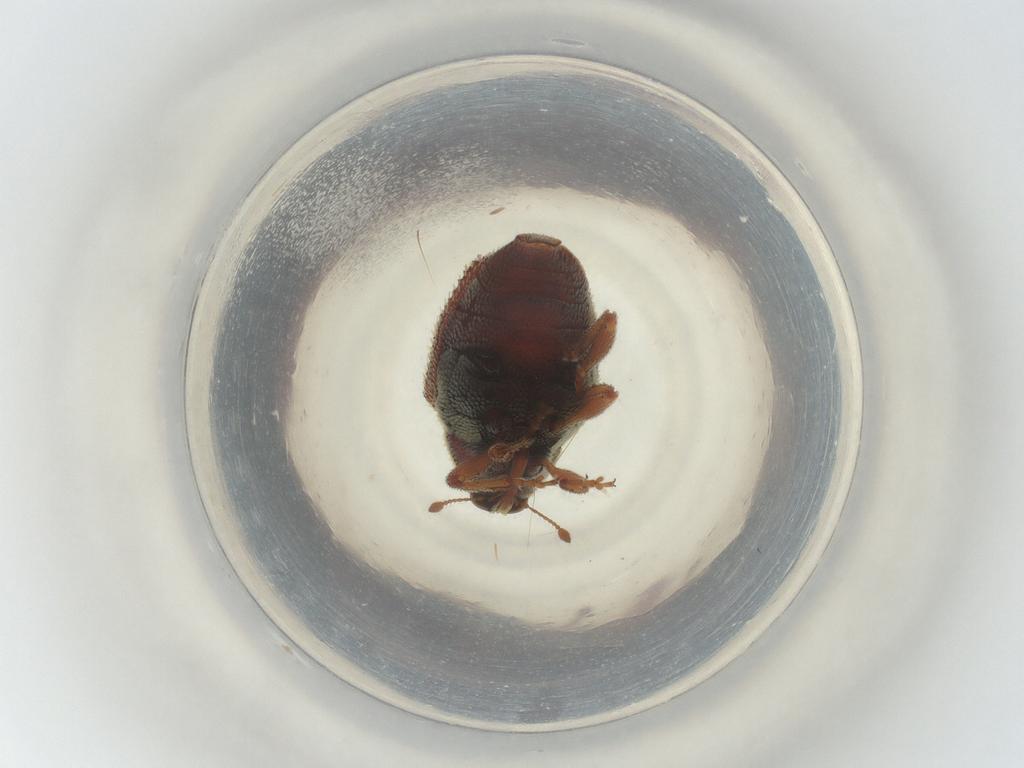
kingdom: Animalia
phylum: Arthropoda
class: Insecta
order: Coleoptera
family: Curculionidae
